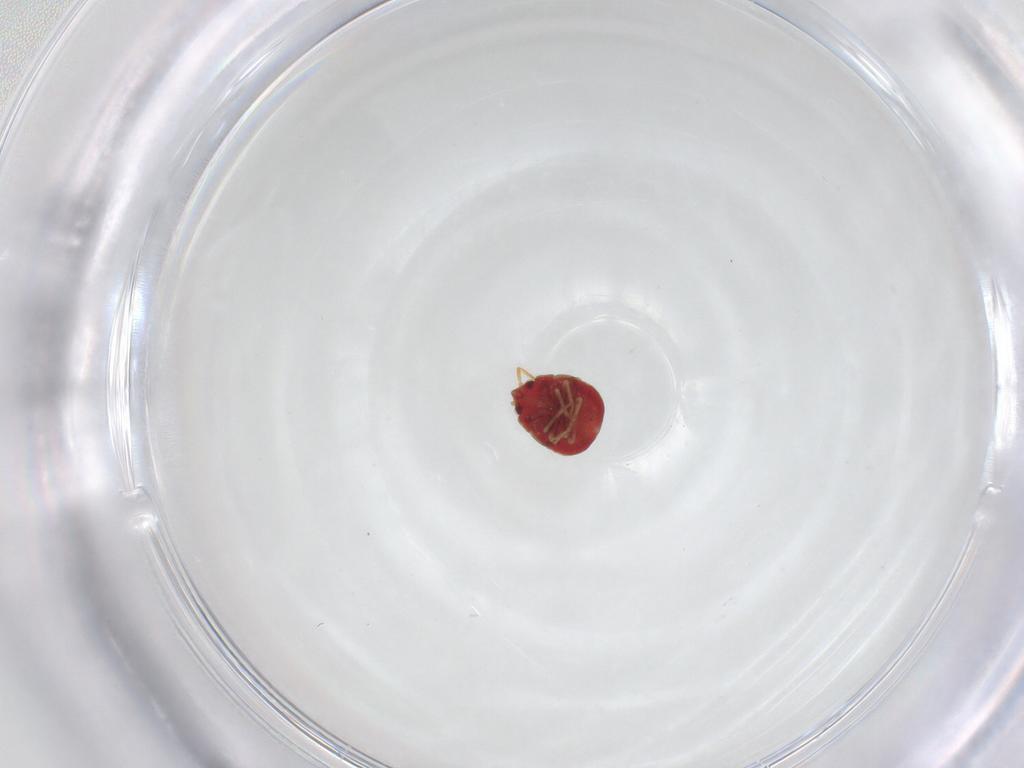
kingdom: Animalia
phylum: Arthropoda
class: Insecta
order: Hemiptera
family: Anthocoridae
